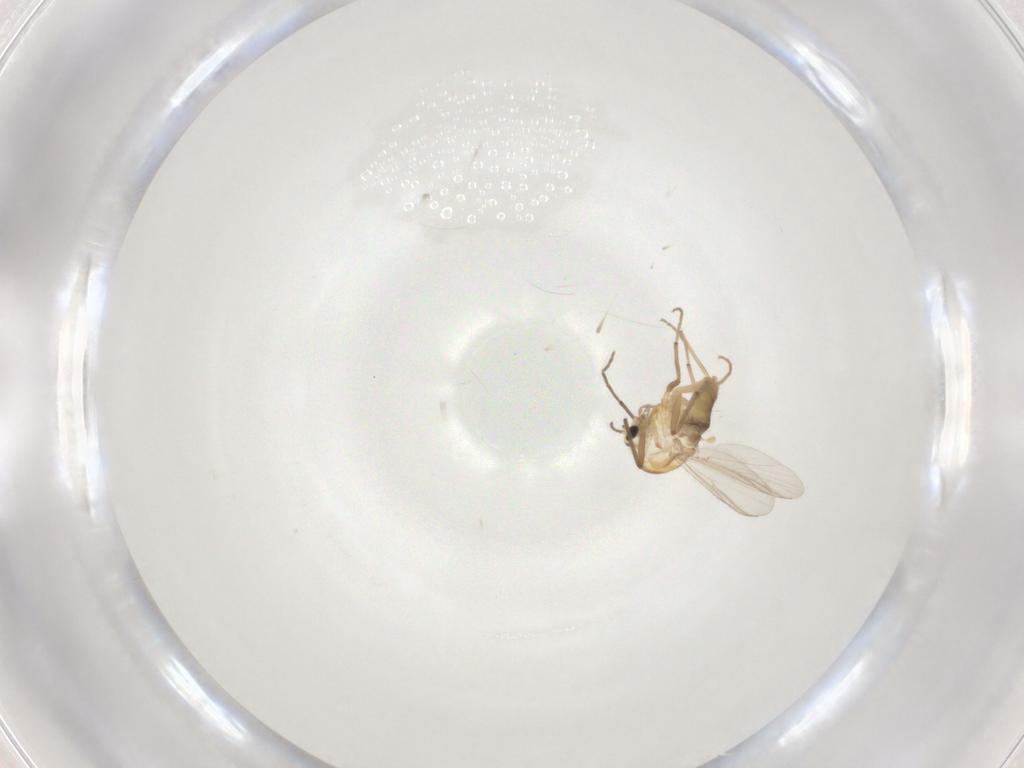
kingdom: Animalia
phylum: Arthropoda
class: Insecta
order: Diptera
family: Chironomidae
